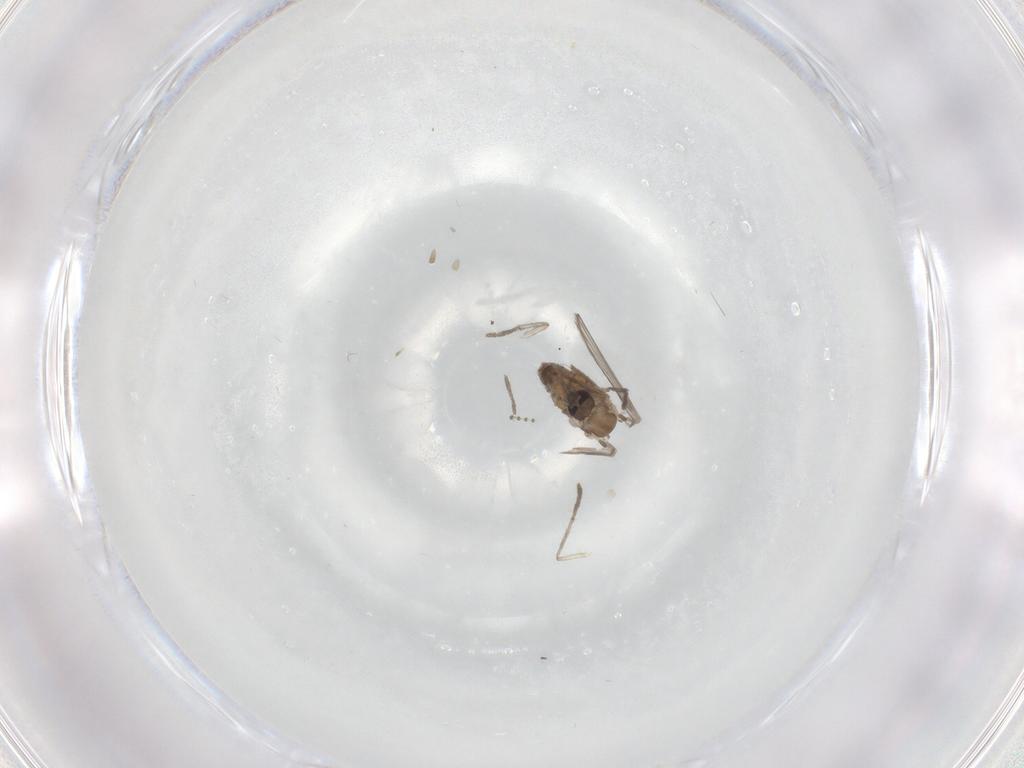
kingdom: Animalia
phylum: Arthropoda
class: Insecta
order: Diptera
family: Psychodidae
